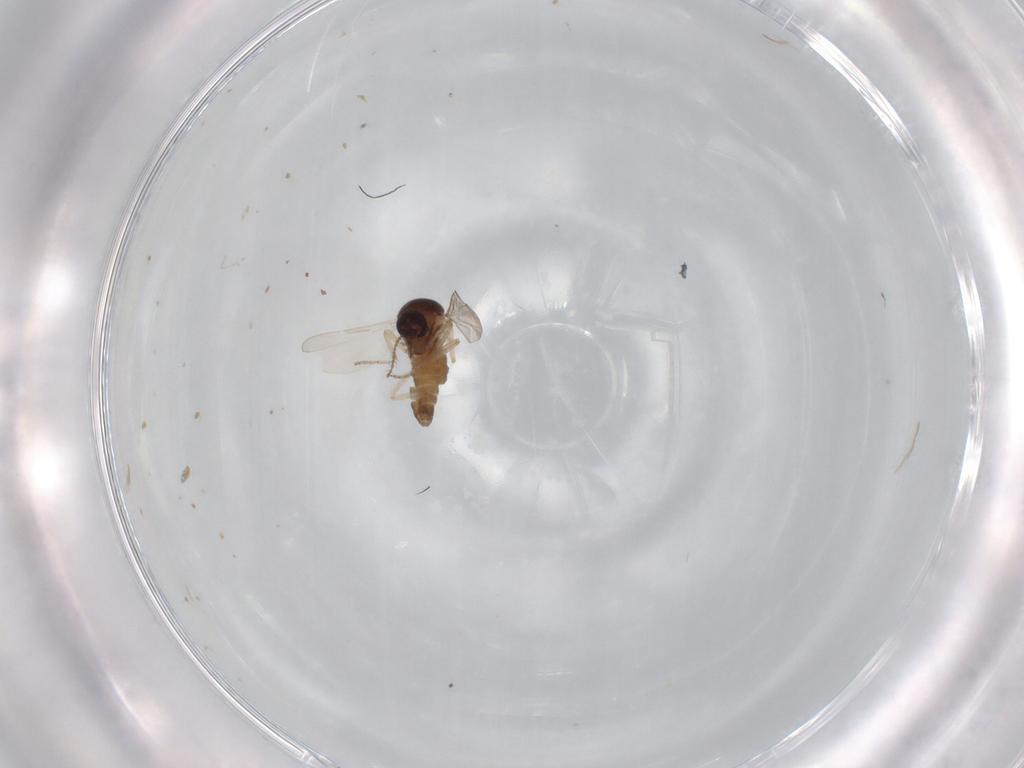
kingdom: Animalia
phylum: Arthropoda
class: Insecta
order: Diptera
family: Ceratopogonidae
